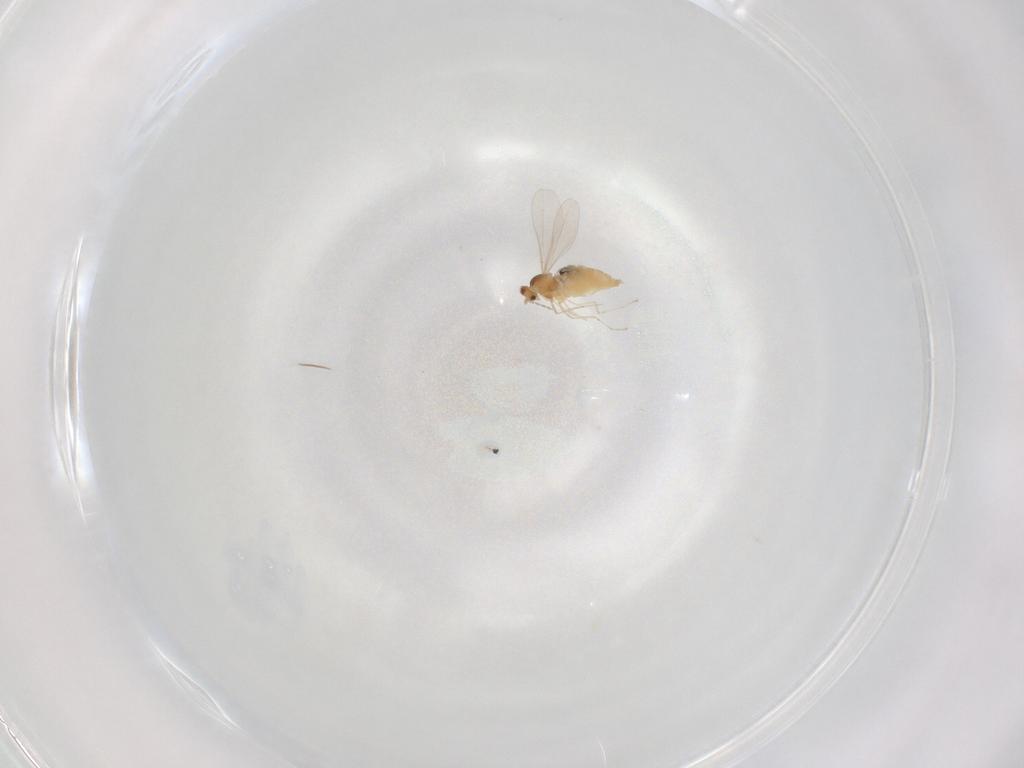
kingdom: Animalia
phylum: Arthropoda
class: Insecta
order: Diptera
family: Cecidomyiidae
